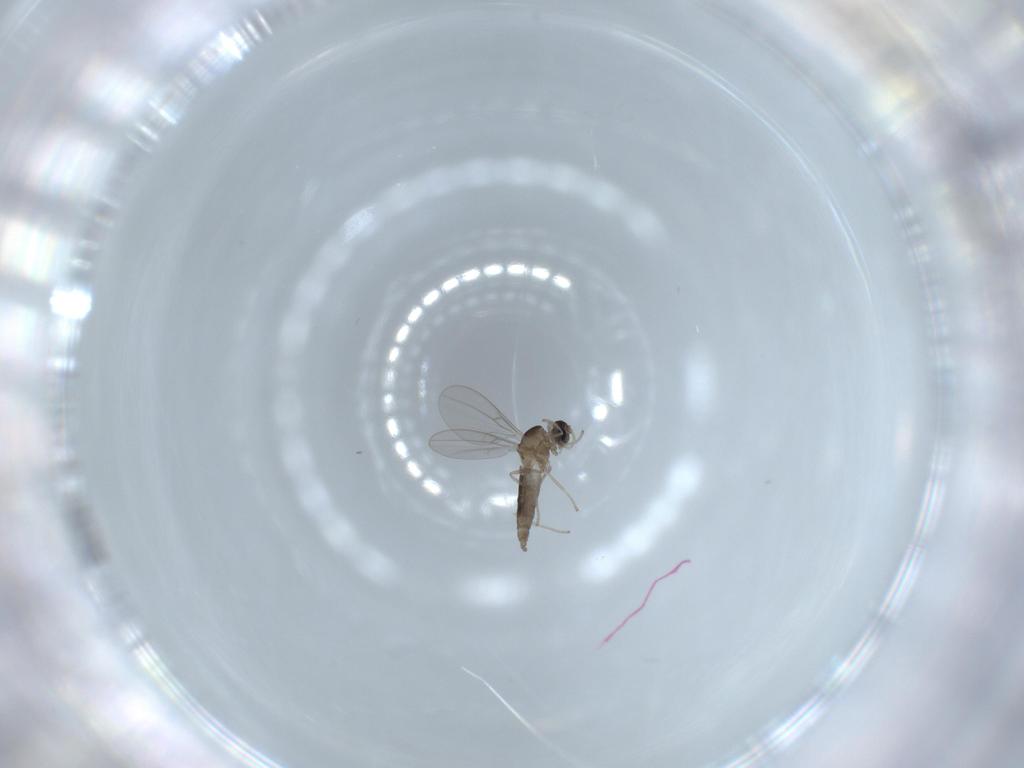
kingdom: Animalia
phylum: Arthropoda
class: Insecta
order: Diptera
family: Cecidomyiidae
